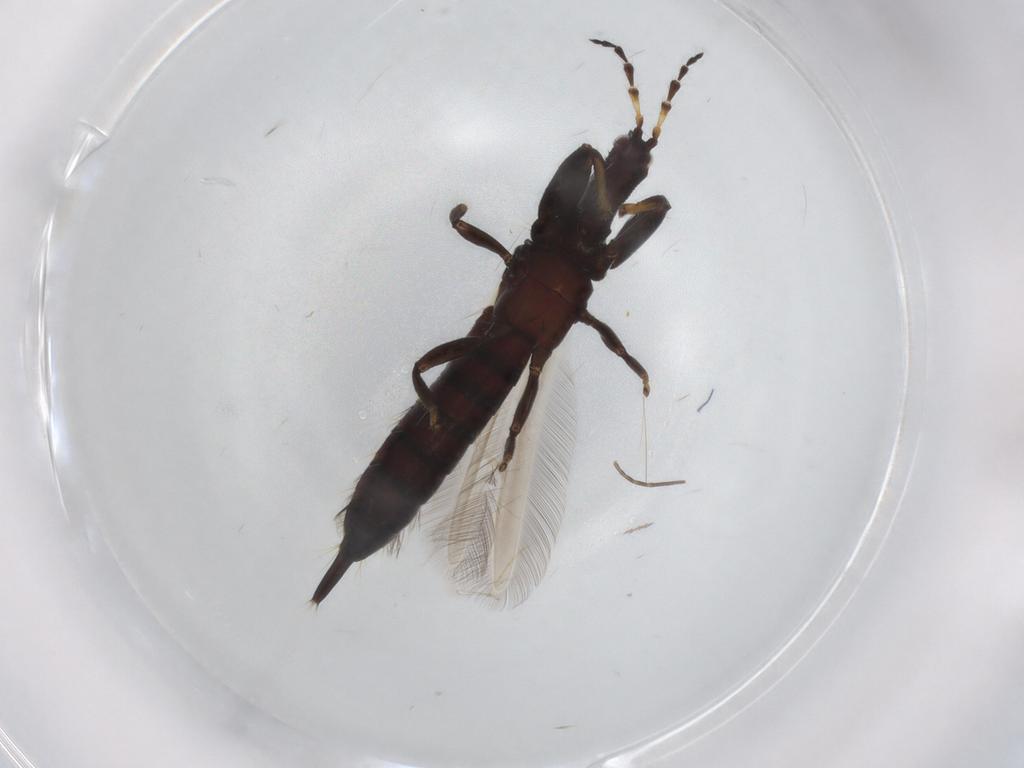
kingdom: Animalia
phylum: Arthropoda
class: Insecta
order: Thysanoptera
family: Phlaeothripidae
